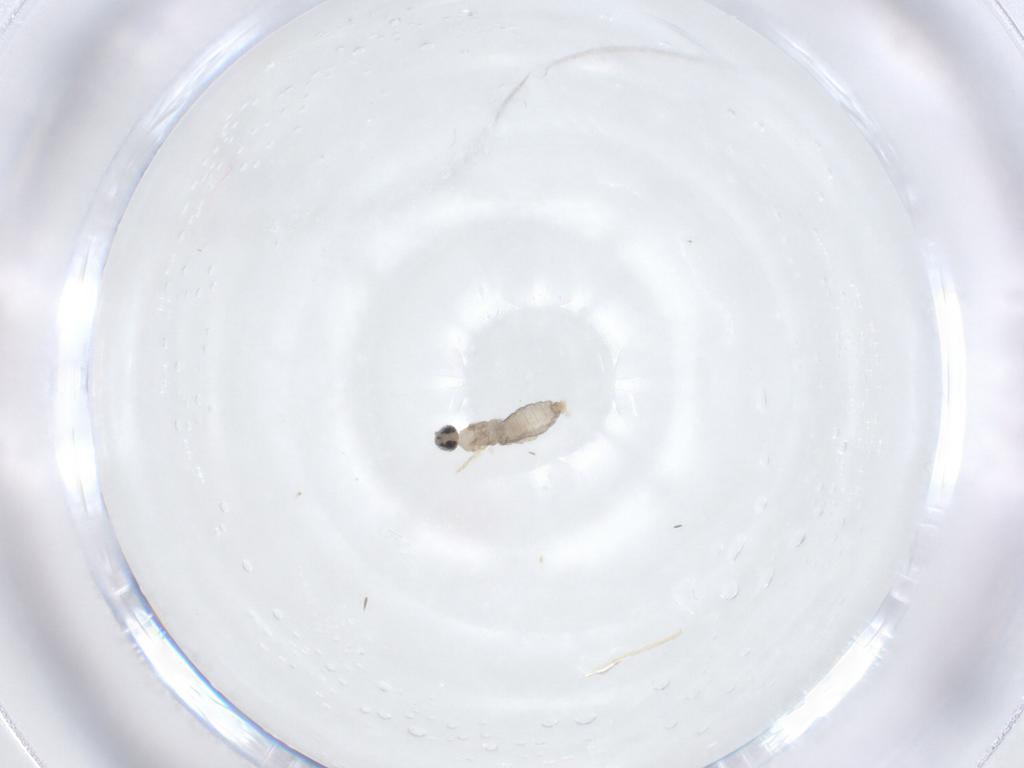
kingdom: Animalia
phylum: Arthropoda
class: Insecta
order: Diptera
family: Cecidomyiidae
